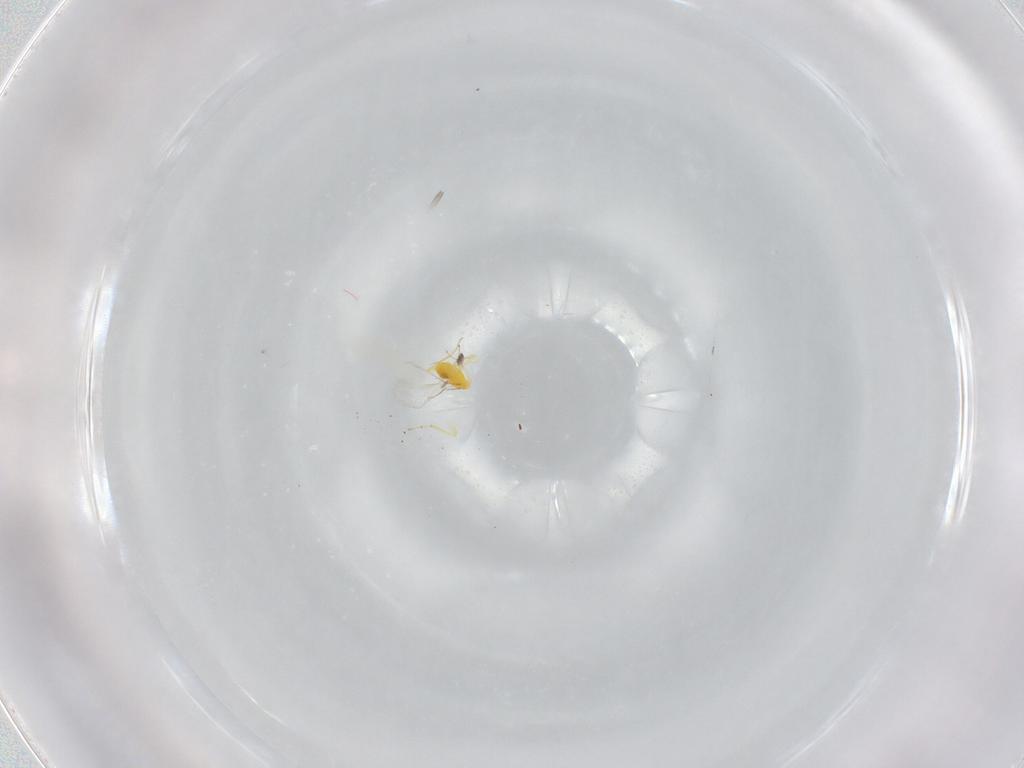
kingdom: Animalia
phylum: Arthropoda
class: Insecta
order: Hymenoptera
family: Aphelinidae
